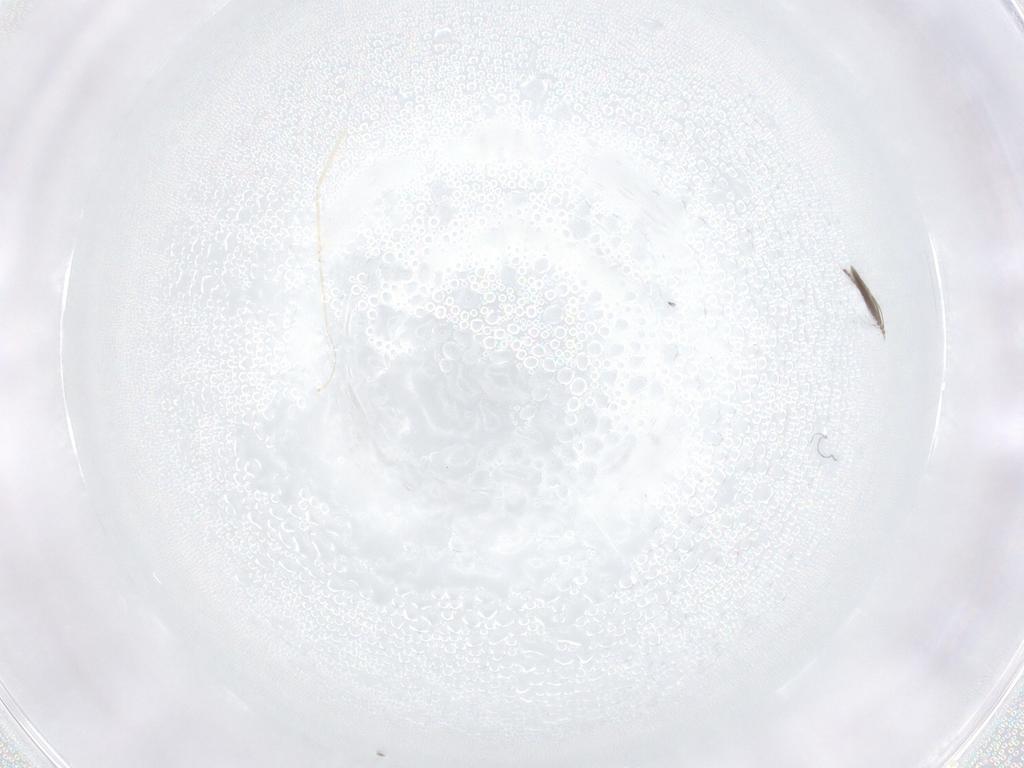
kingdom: Animalia
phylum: Arthropoda
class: Insecta
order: Diptera
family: Cecidomyiidae
